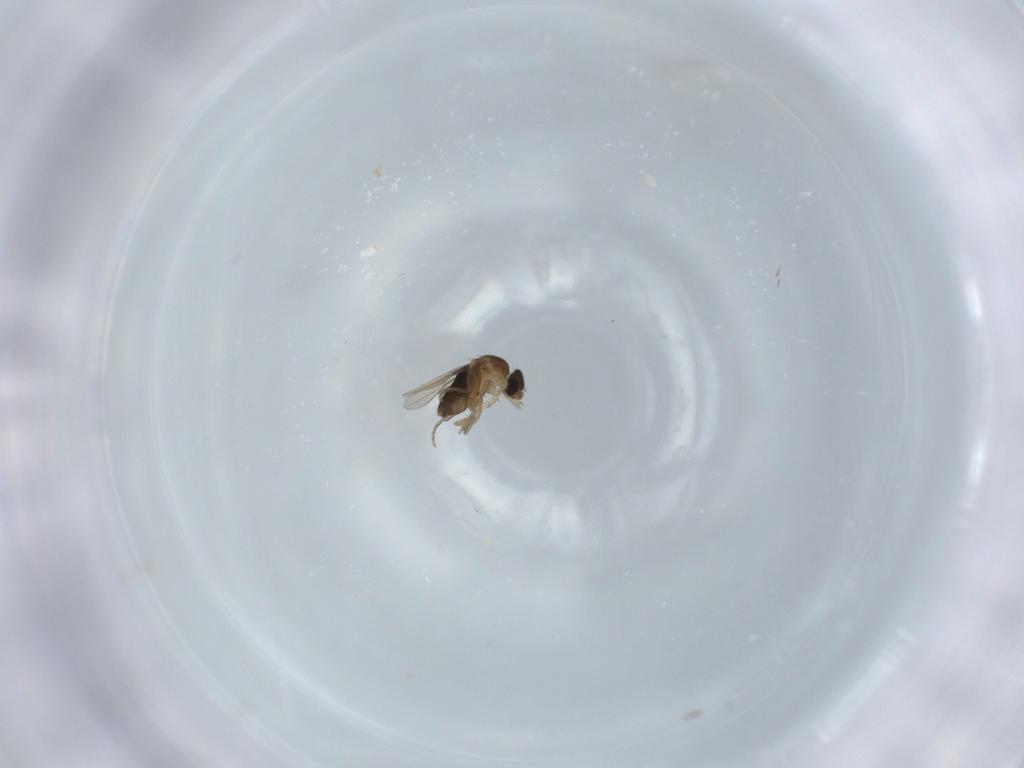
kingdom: Animalia
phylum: Arthropoda
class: Insecta
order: Diptera
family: Phoridae
